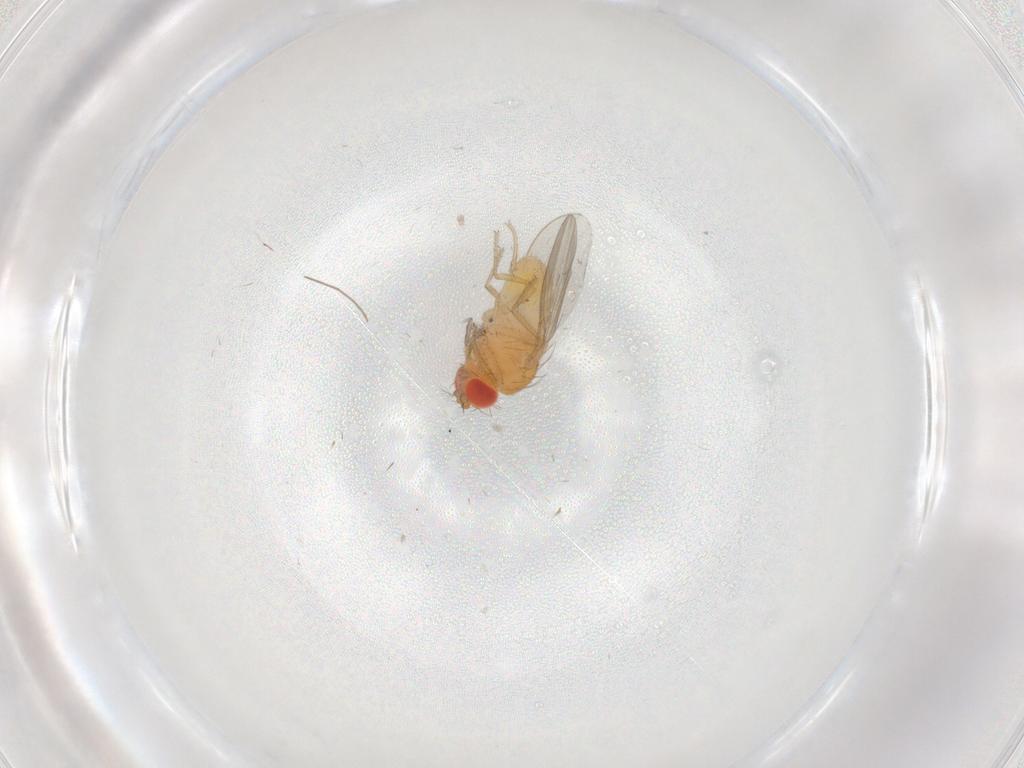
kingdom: Animalia
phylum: Arthropoda
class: Insecta
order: Diptera
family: Drosophilidae
